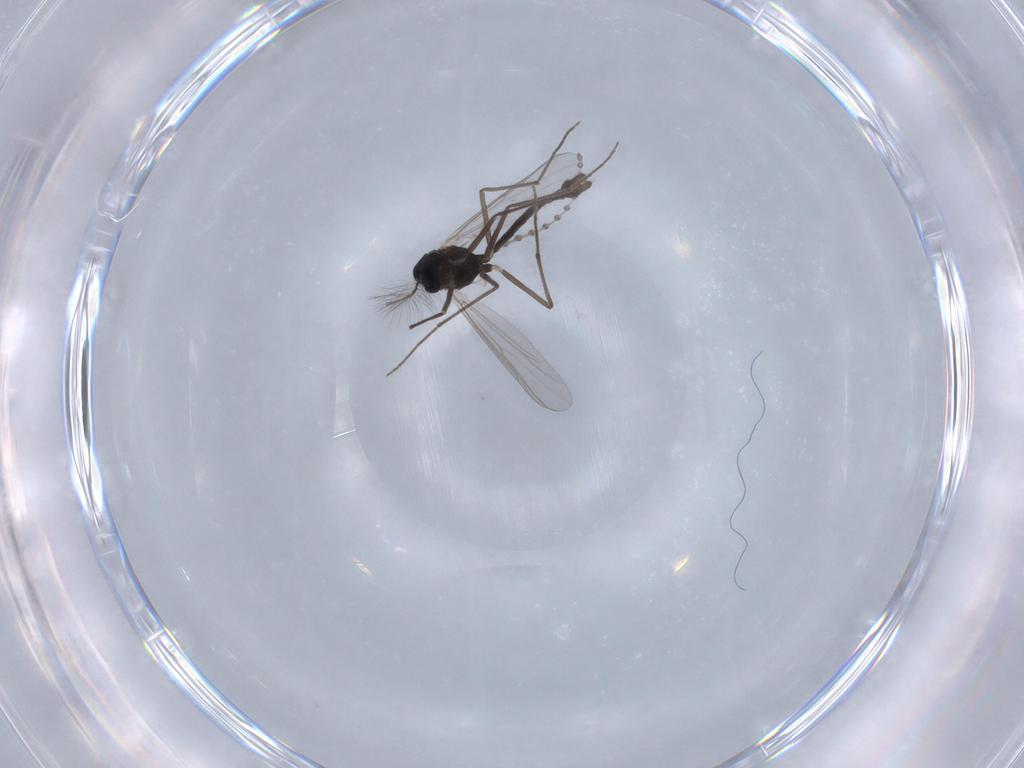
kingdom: Animalia
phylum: Arthropoda
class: Insecta
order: Diptera
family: Chironomidae
